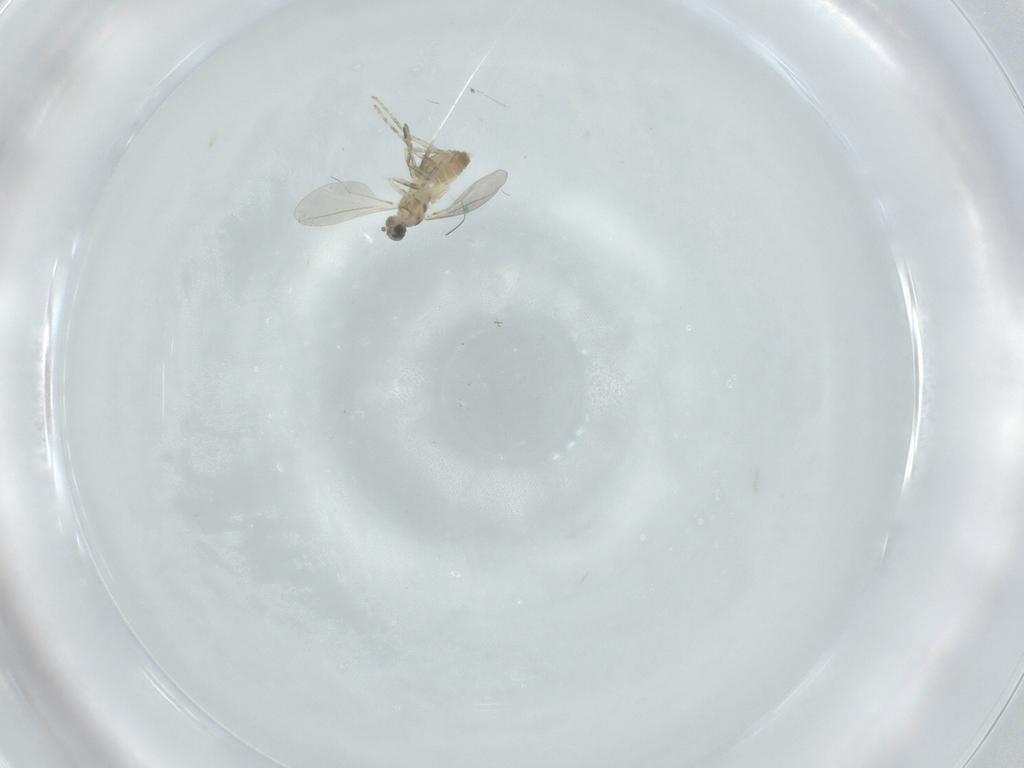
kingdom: Animalia
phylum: Arthropoda
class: Insecta
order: Diptera
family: Cecidomyiidae
